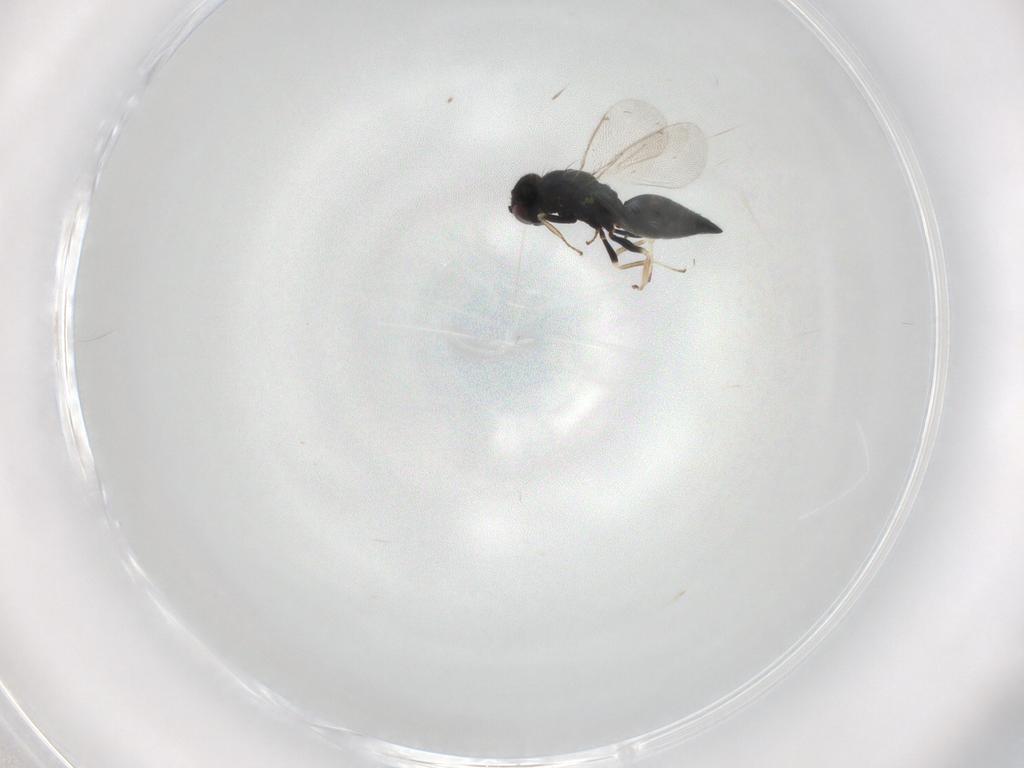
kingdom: Animalia
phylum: Arthropoda
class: Insecta
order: Hymenoptera
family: Eulophidae
